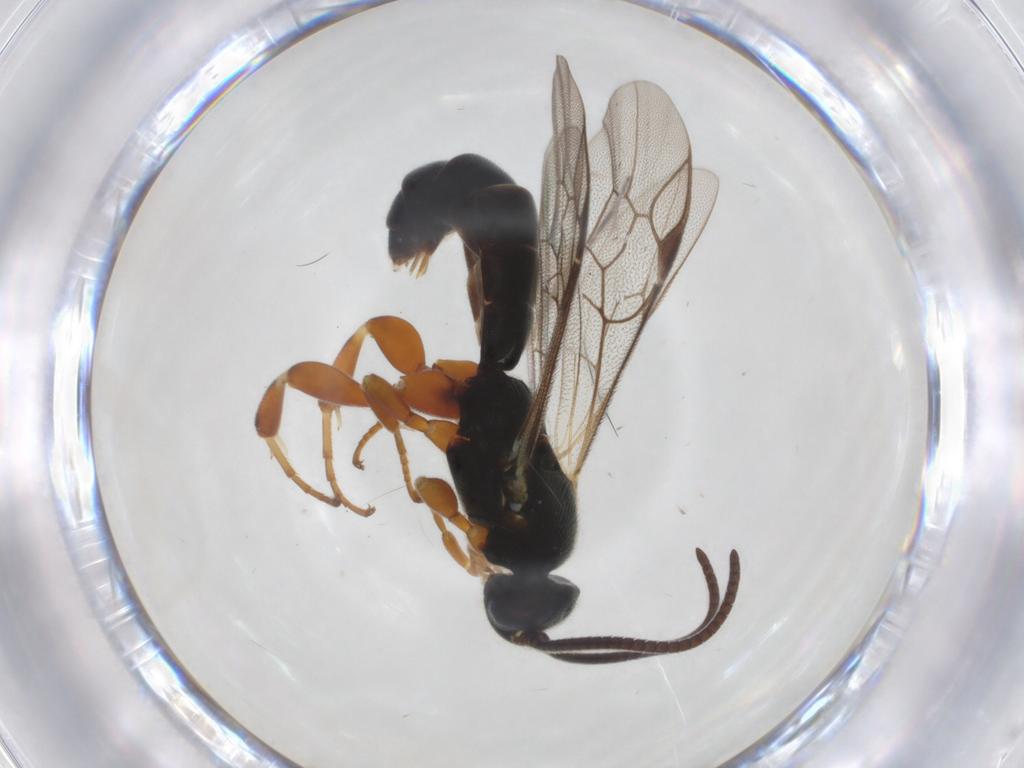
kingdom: Animalia
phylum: Arthropoda
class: Insecta
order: Hymenoptera
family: Ichneumonidae
